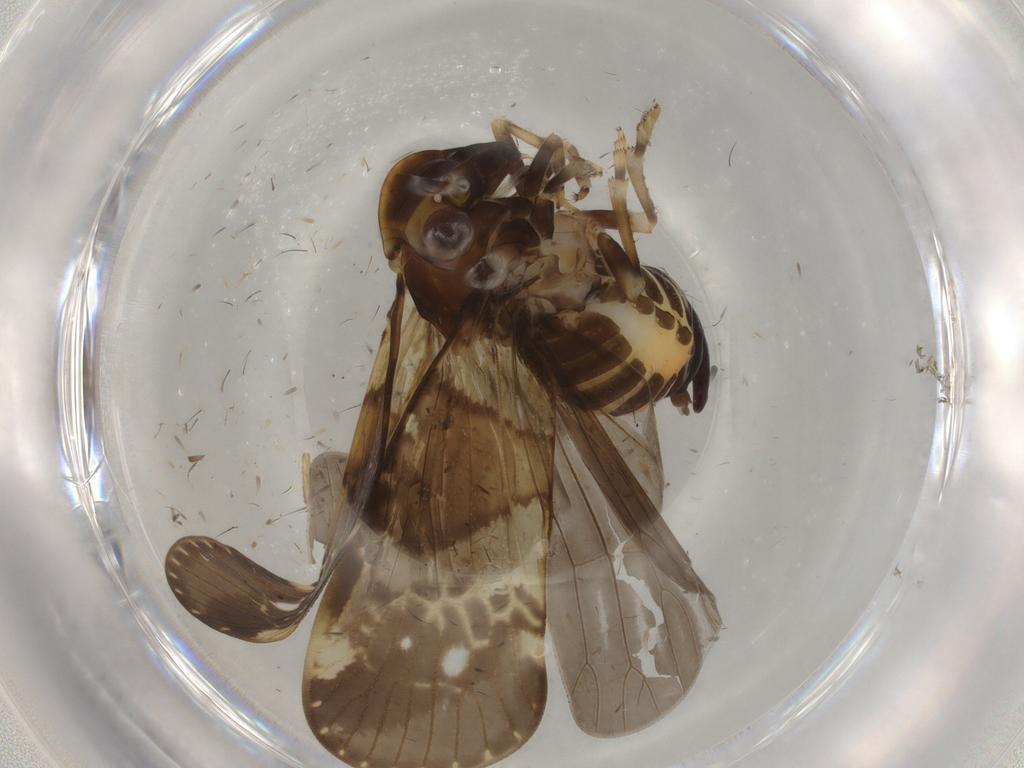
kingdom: Animalia
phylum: Arthropoda
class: Insecta
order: Hemiptera
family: Cixiidae
